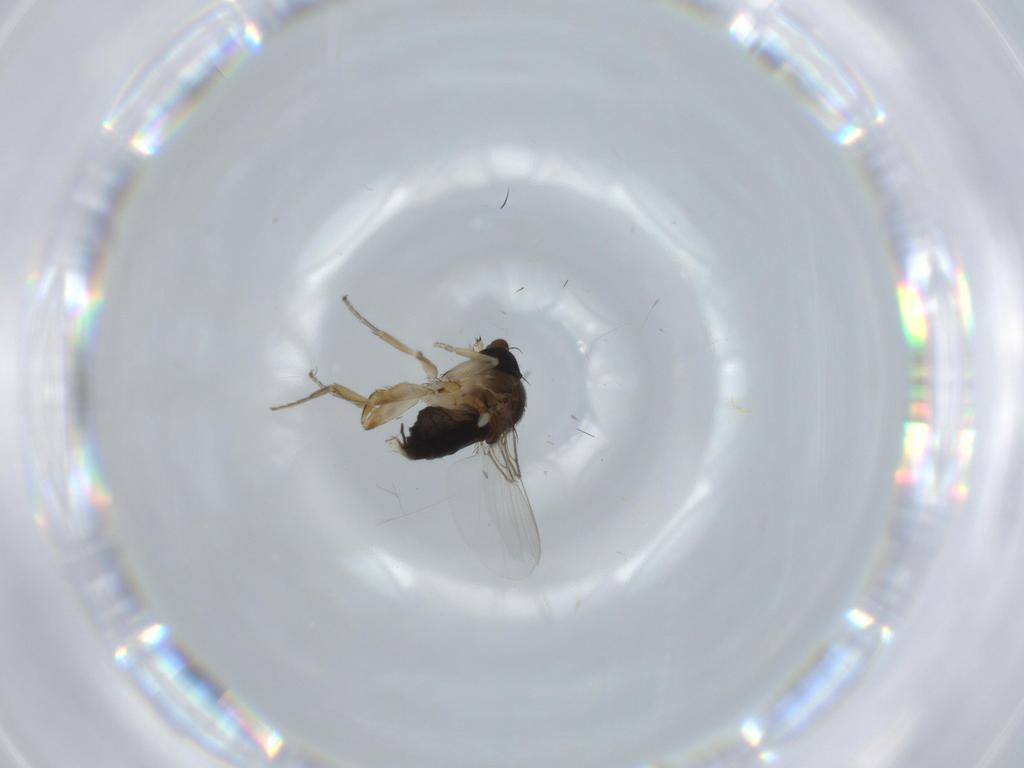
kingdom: Animalia
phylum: Arthropoda
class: Insecta
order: Diptera
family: Phoridae
